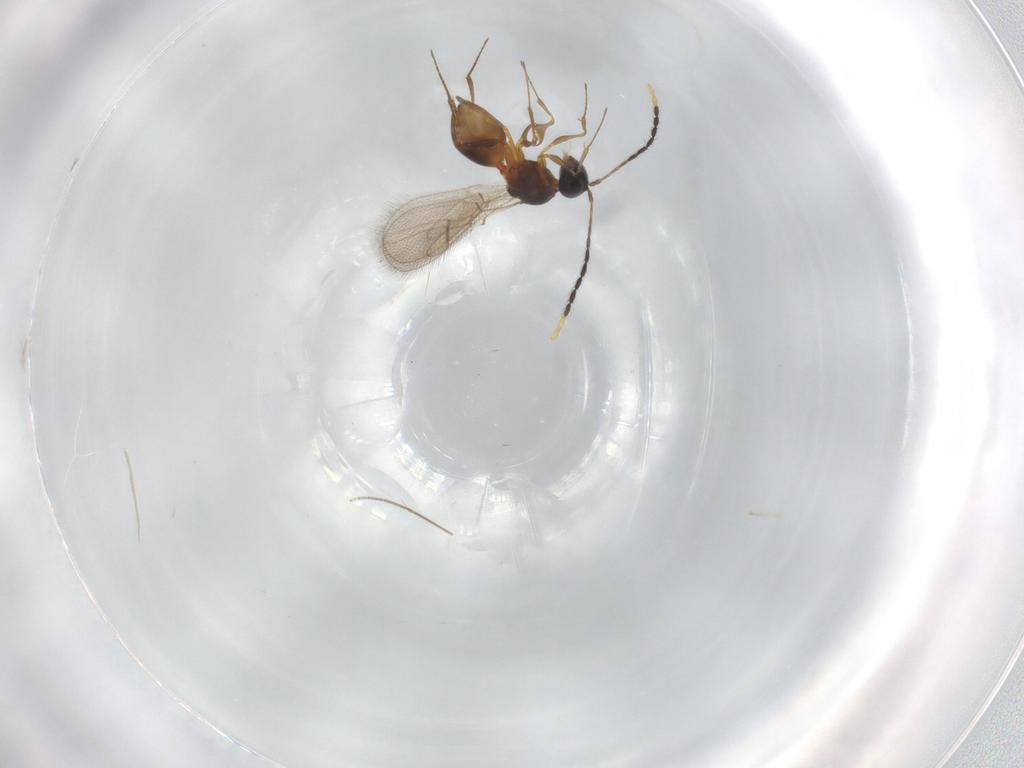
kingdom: Animalia
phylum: Arthropoda
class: Insecta
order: Hymenoptera
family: Figitidae
